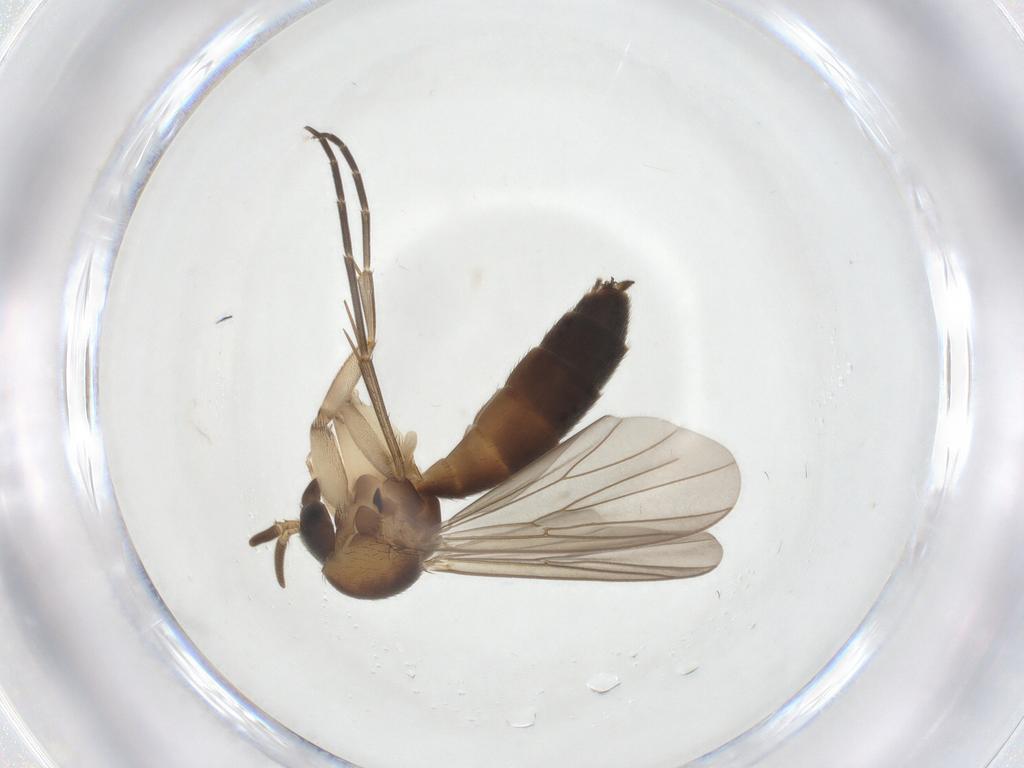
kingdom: Animalia
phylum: Arthropoda
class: Insecta
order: Diptera
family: Mycetophilidae
